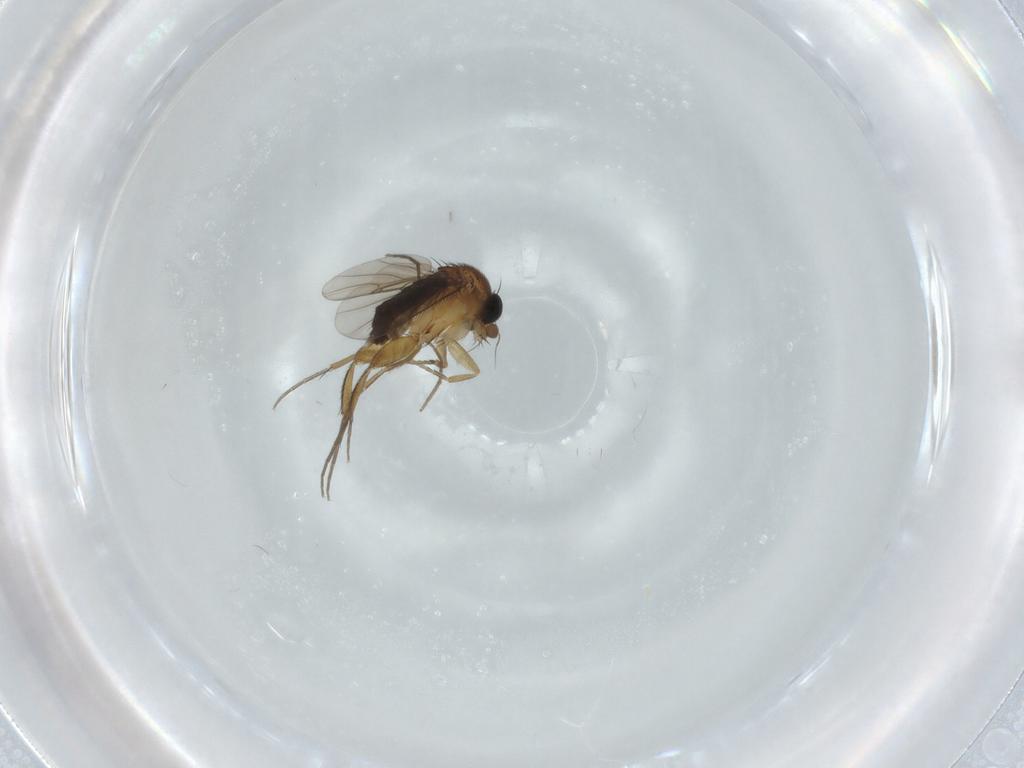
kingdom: Animalia
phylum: Arthropoda
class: Insecta
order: Diptera
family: Phoridae
